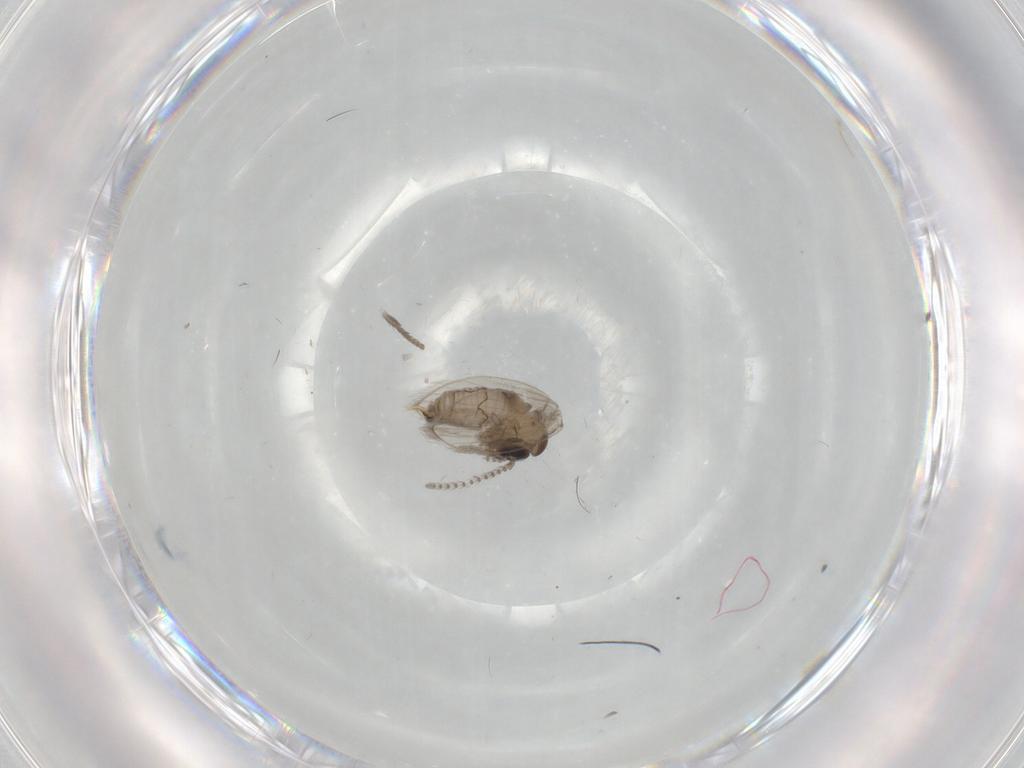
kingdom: Animalia
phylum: Arthropoda
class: Insecta
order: Diptera
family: Psychodidae
